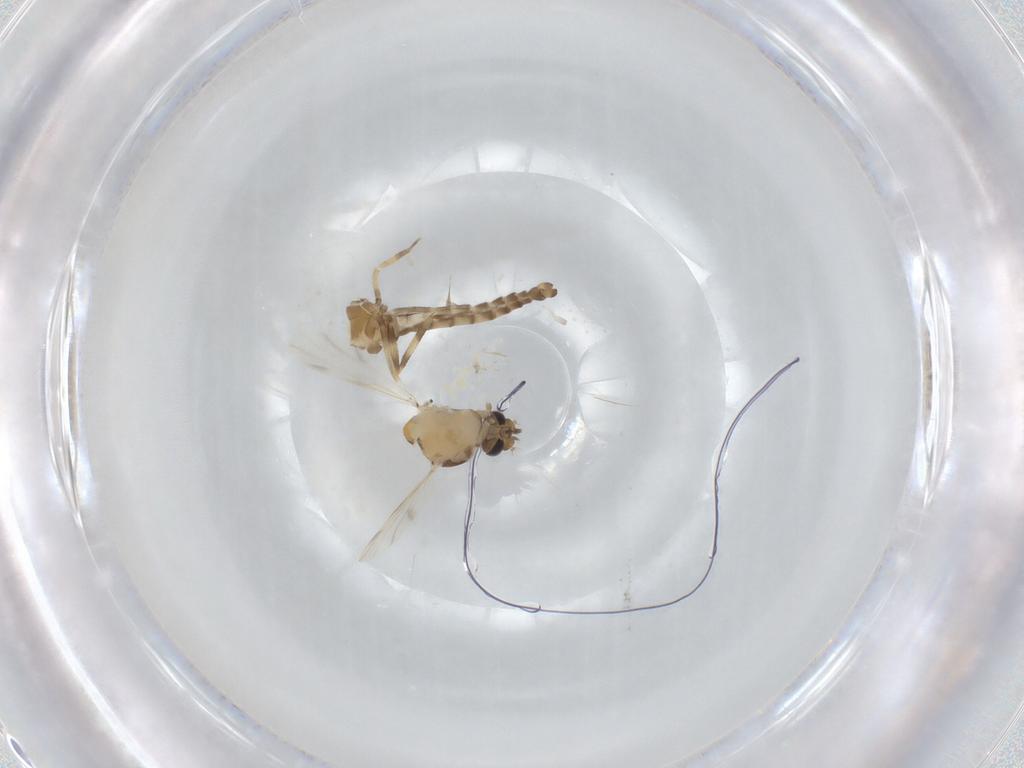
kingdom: Animalia
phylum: Arthropoda
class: Insecta
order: Diptera
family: Ceratopogonidae
